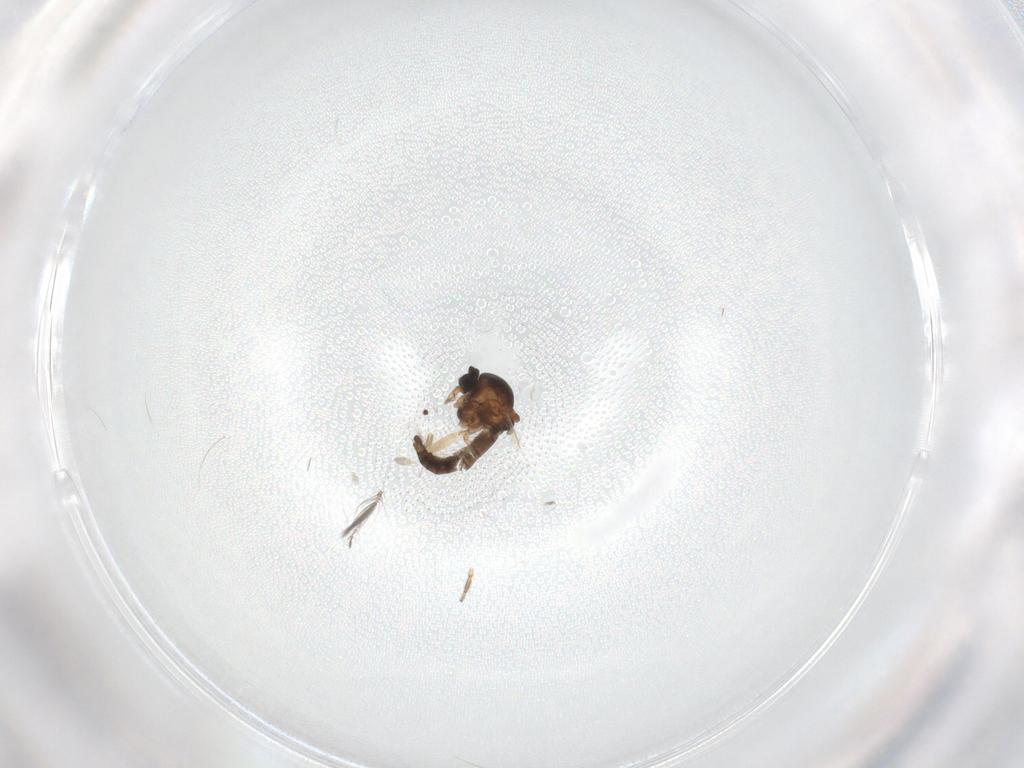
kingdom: Animalia
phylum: Arthropoda
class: Insecta
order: Diptera
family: Ceratopogonidae
